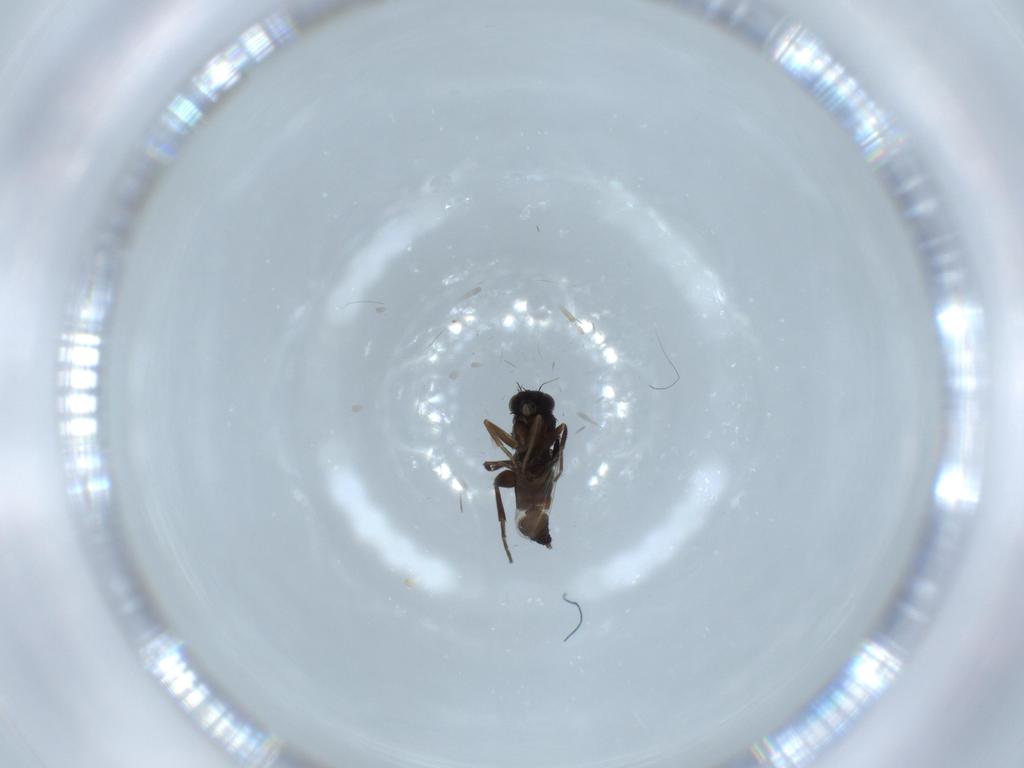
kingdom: Animalia
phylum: Arthropoda
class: Insecta
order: Diptera
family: Phoridae
